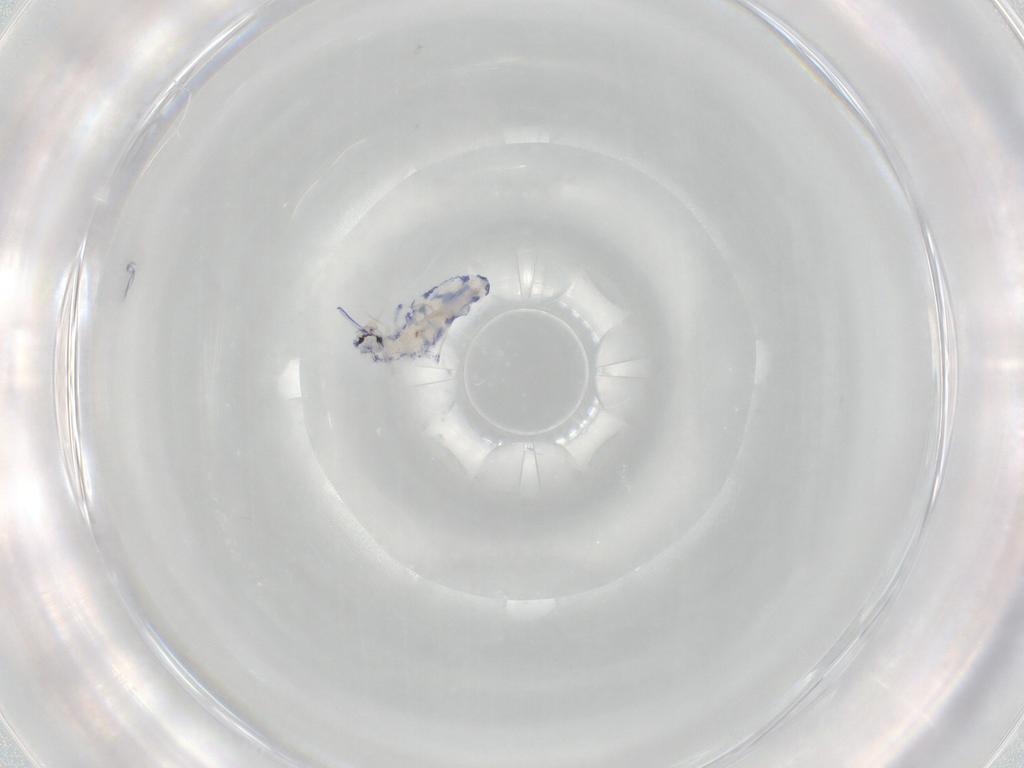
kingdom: Animalia
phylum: Arthropoda
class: Collembola
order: Entomobryomorpha
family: Entomobryidae
